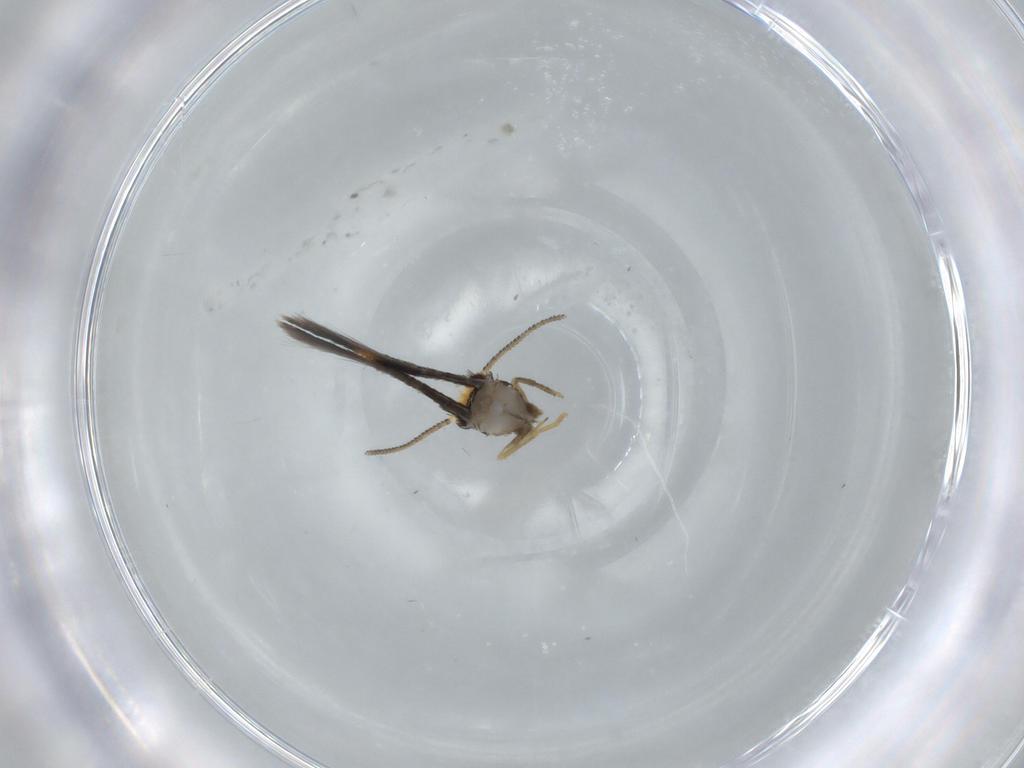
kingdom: Animalia
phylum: Arthropoda
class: Insecta
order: Lepidoptera
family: Nepticulidae
